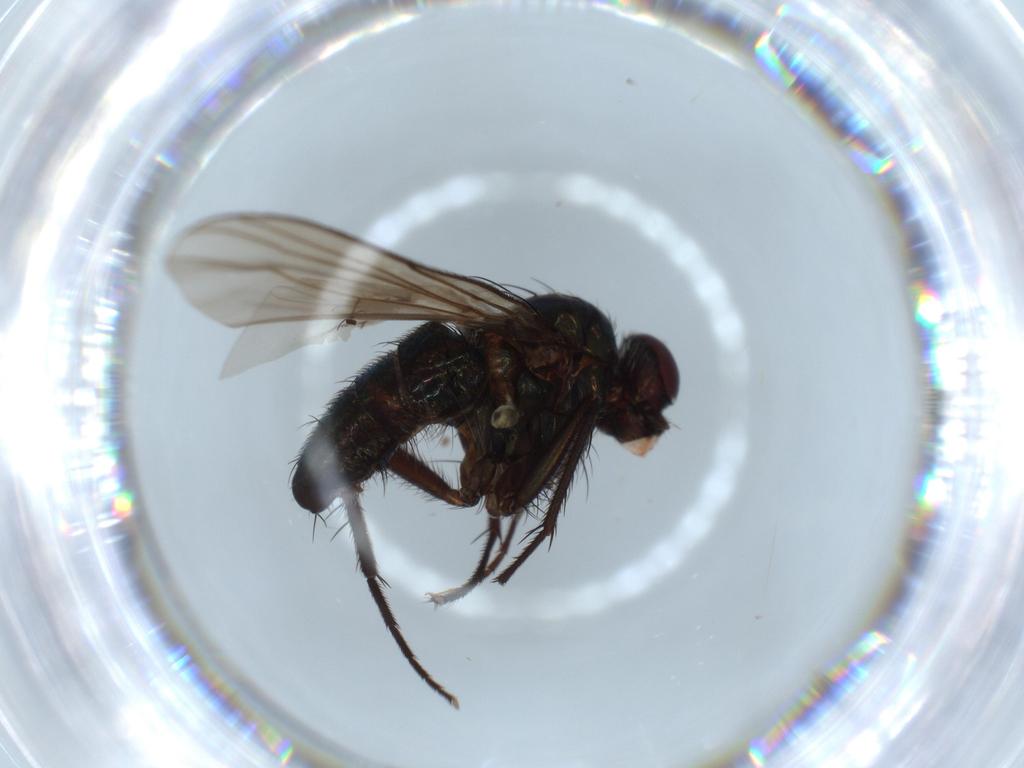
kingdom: Animalia
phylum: Arthropoda
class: Insecta
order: Diptera
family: Dolichopodidae
